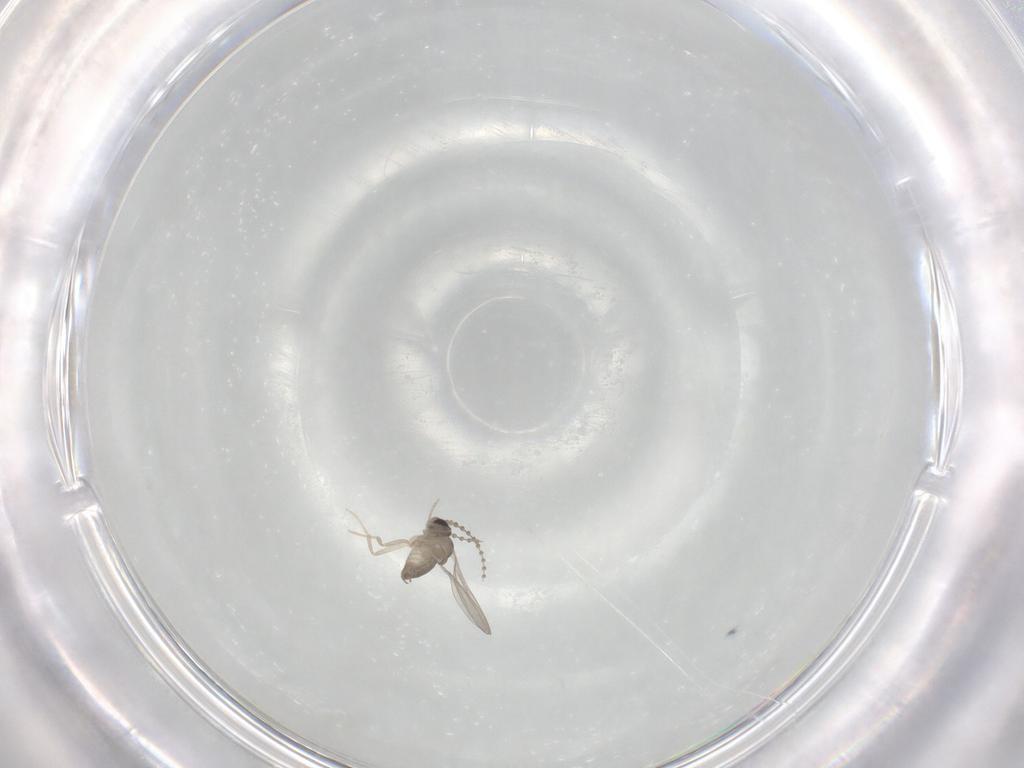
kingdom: Animalia
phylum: Arthropoda
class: Insecta
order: Diptera
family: Cecidomyiidae
